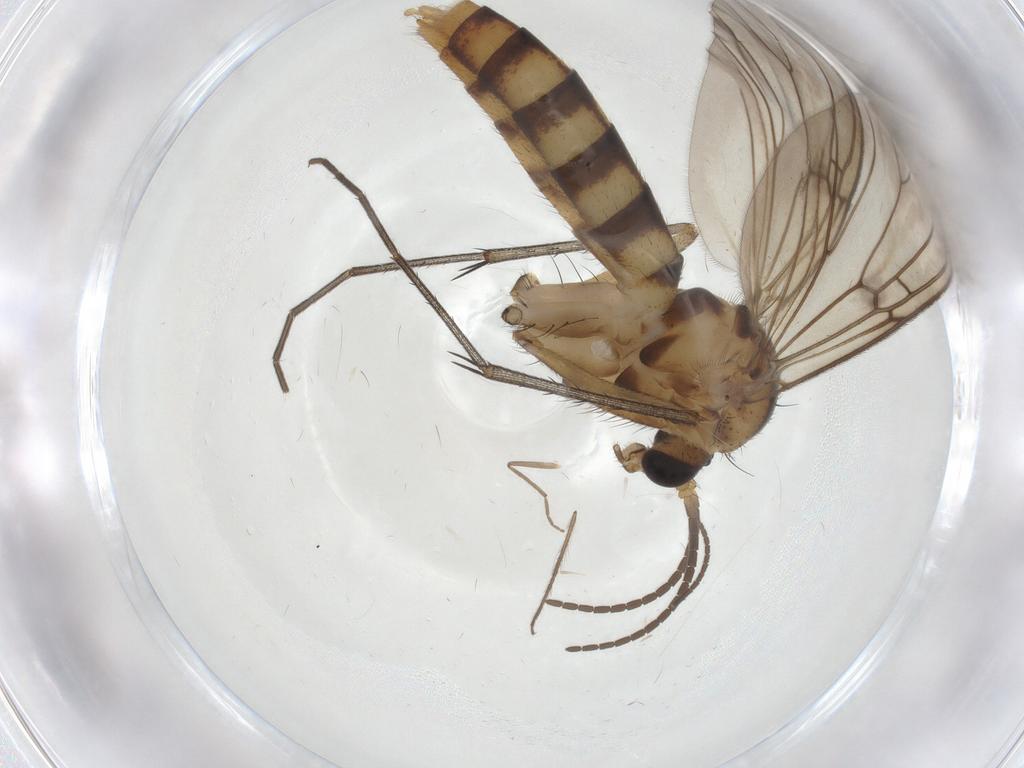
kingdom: Animalia
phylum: Arthropoda
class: Insecta
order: Diptera
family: Mycetophilidae
